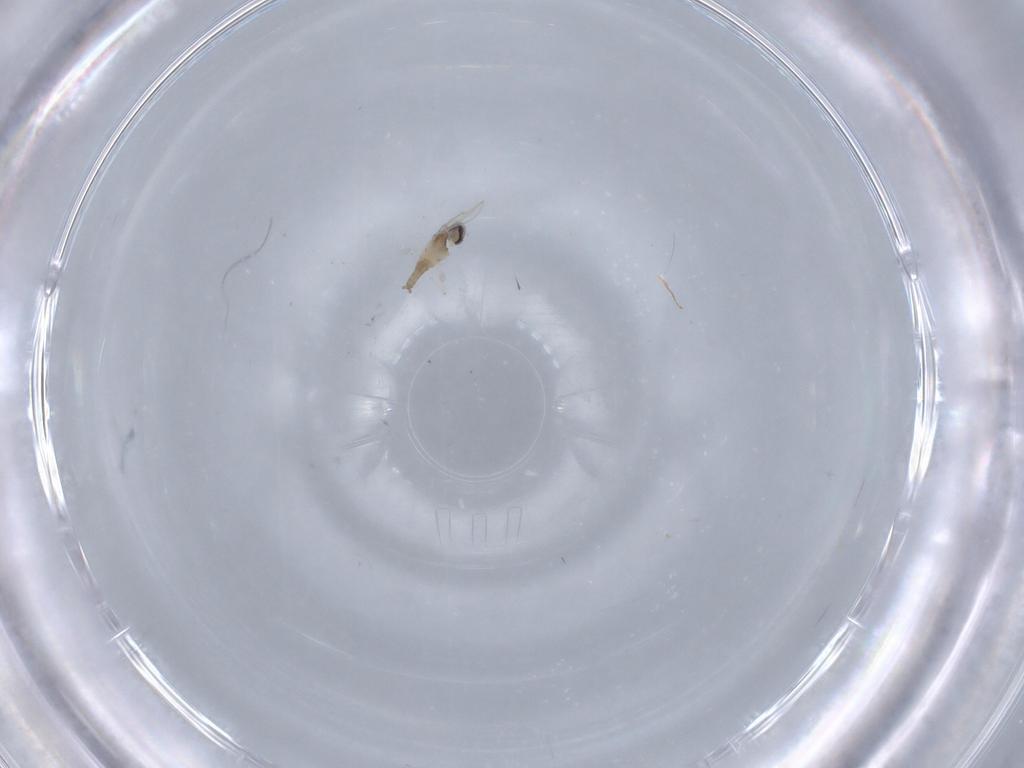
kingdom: Animalia
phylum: Arthropoda
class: Insecta
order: Diptera
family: Cecidomyiidae
